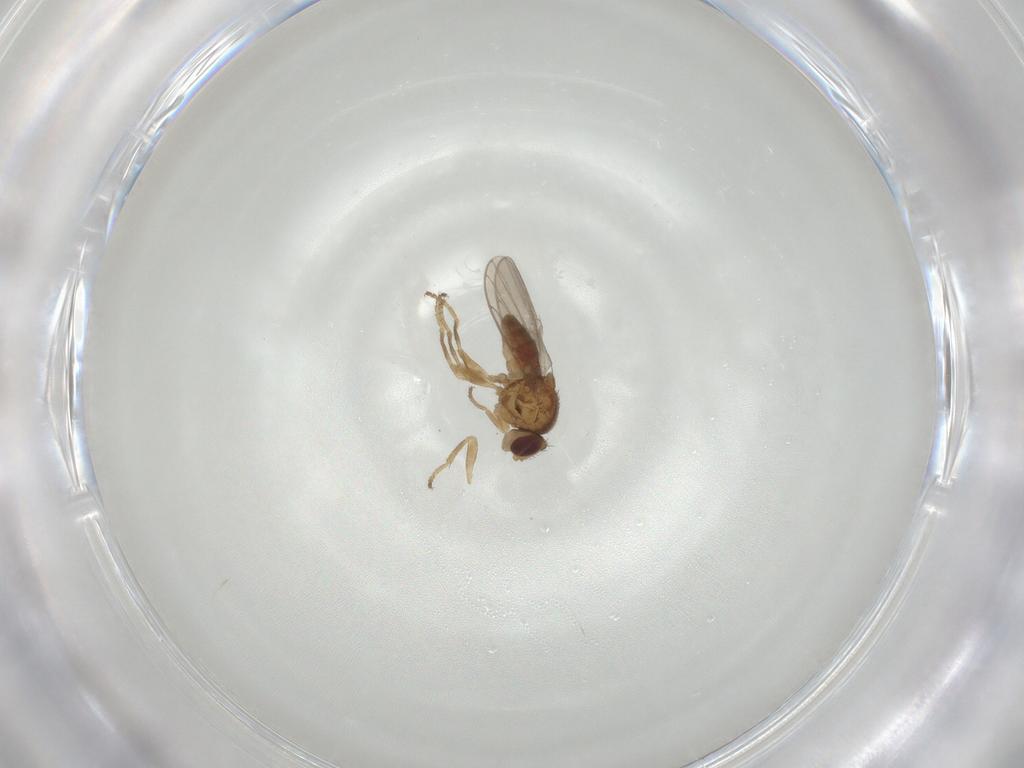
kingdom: Animalia
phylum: Arthropoda
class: Insecta
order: Diptera
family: Chloropidae
